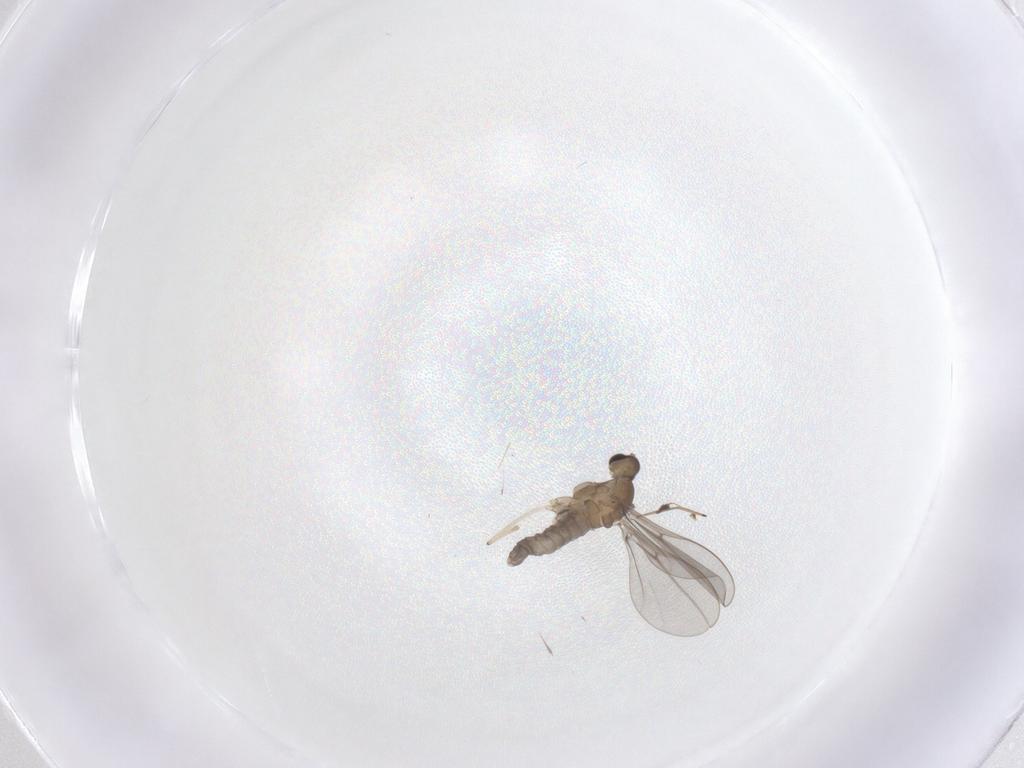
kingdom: Animalia
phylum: Arthropoda
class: Insecta
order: Diptera
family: Cecidomyiidae
